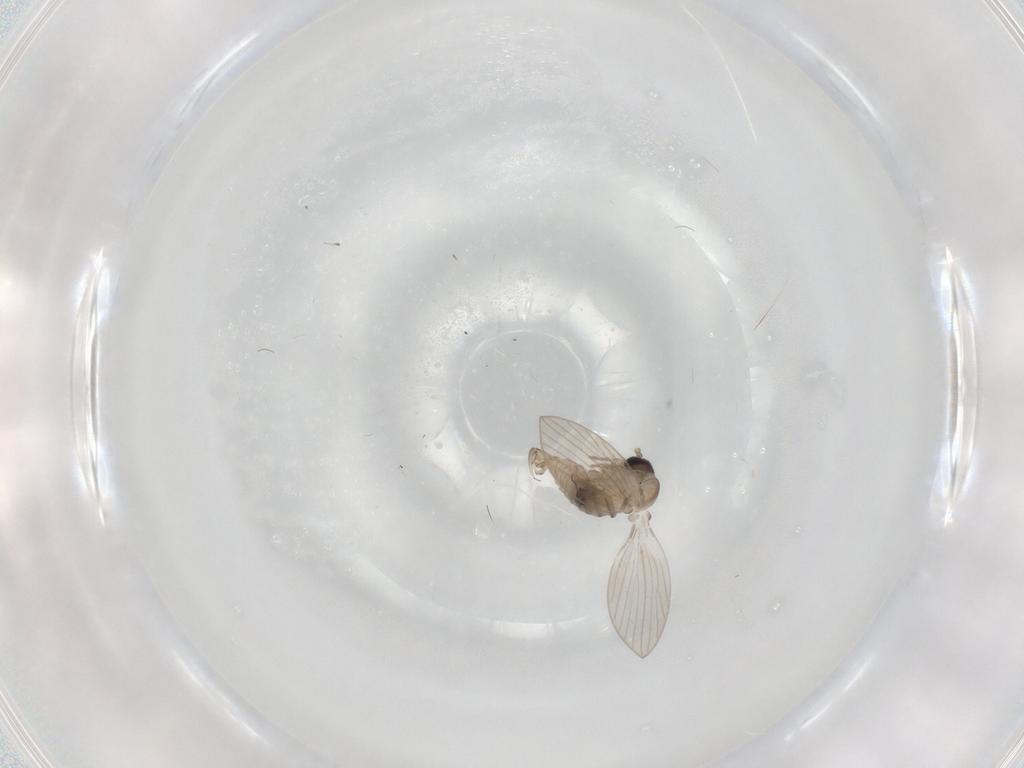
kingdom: Animalia
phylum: Arthropoda
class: Insecta
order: Diptera
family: Psychodidae
